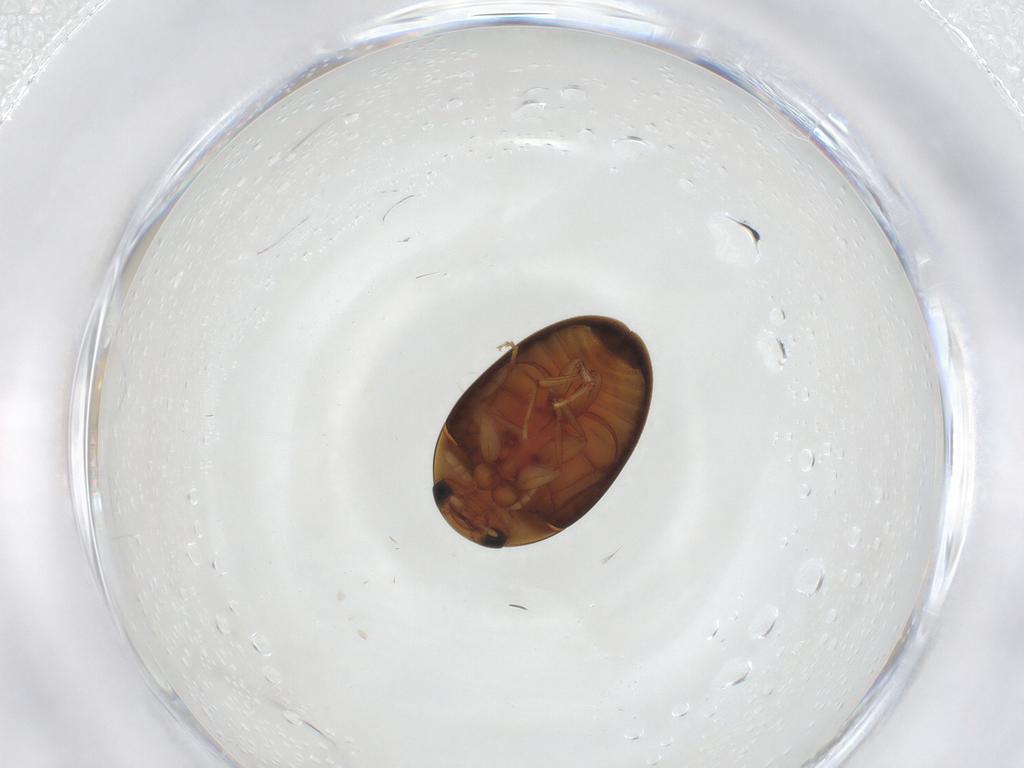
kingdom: Animalia
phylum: Arthropoda
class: Insecta
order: Coleoptera
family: Phalacridae
